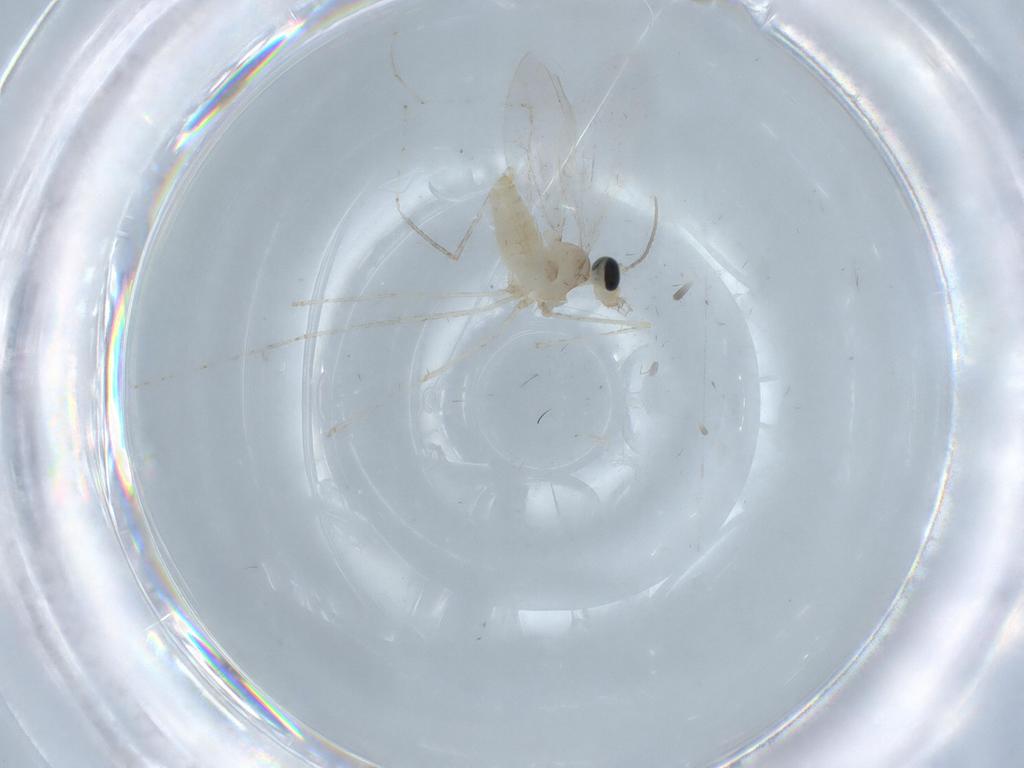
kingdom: Animalia
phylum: Arthropoda
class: Insecta
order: Diptera
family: Cecidomyiidae
